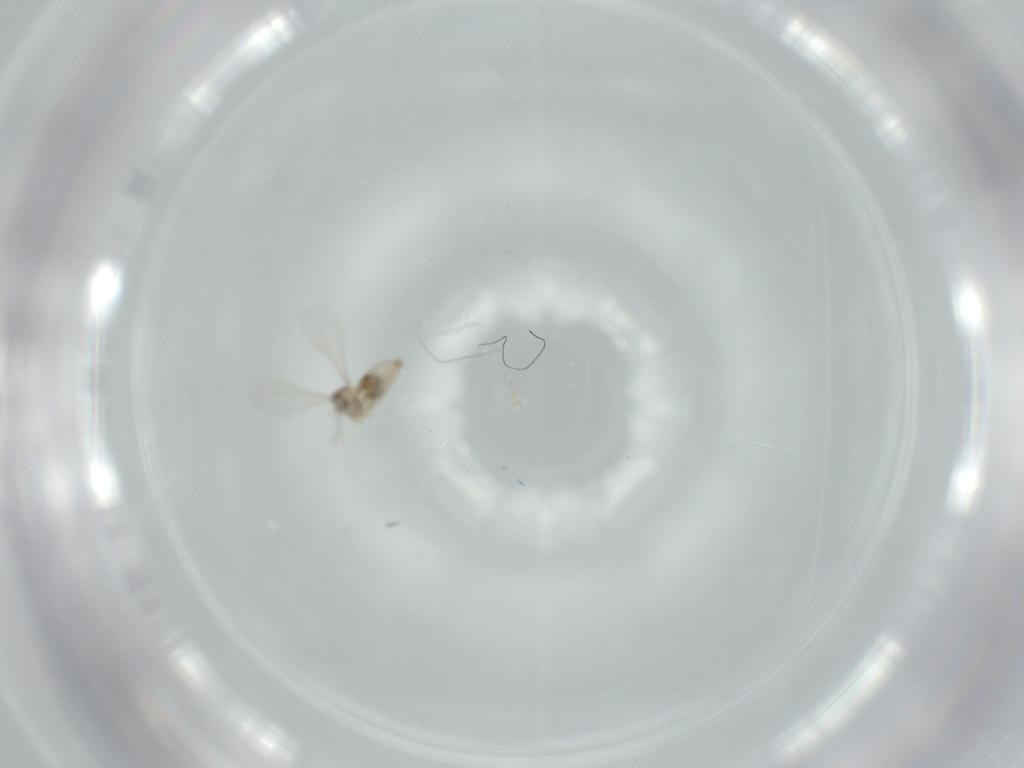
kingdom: Animalia
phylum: Arthropoda
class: Insecta
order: Diptera
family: Cecidomyiidae
